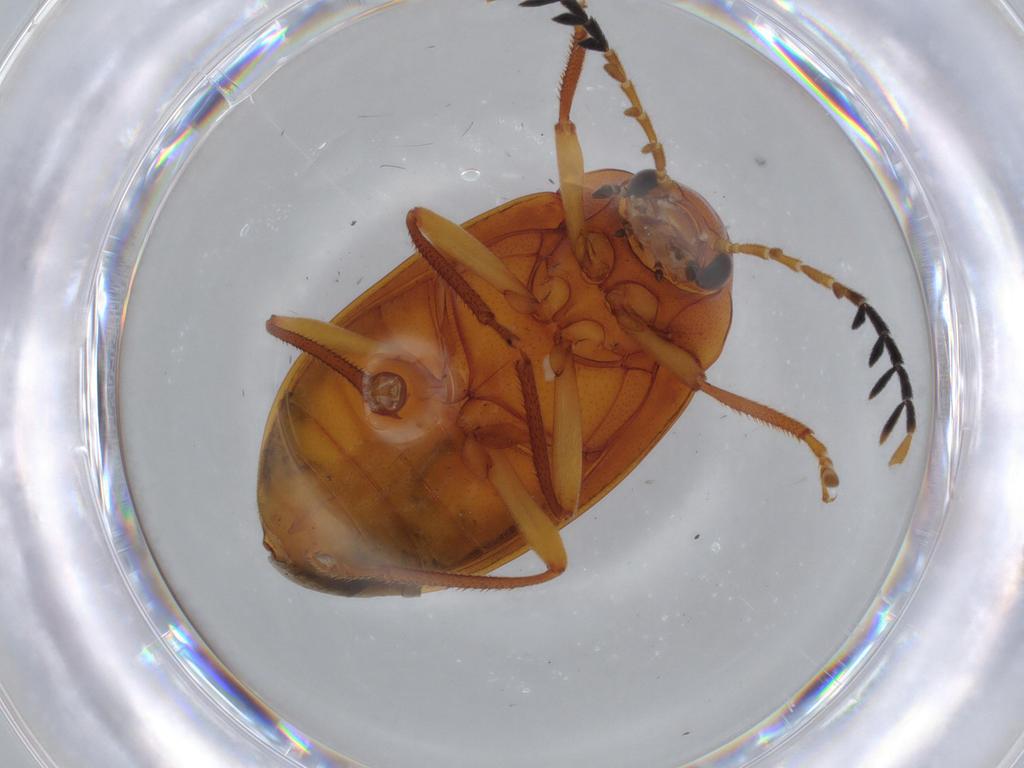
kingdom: Animalia
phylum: Arthropoda
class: Insecta
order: Coleoptera
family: Ptilodactylidae
